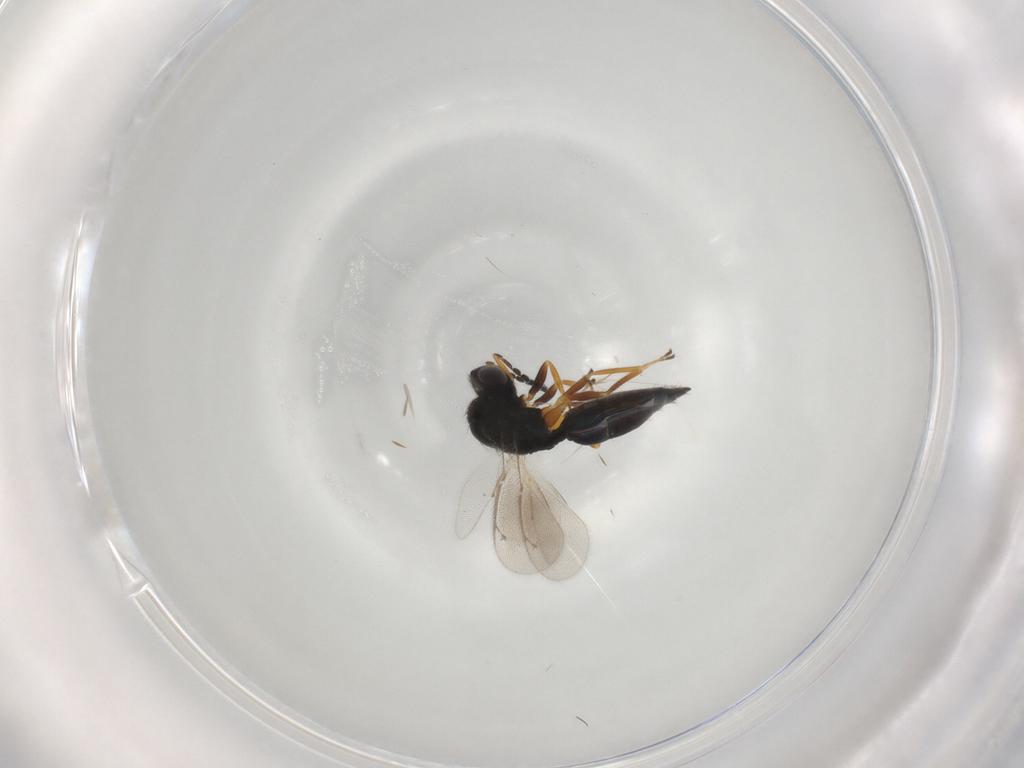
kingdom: Animalia
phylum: Arthropoda
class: Insecta
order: Hymenoptera
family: Eulophidae
